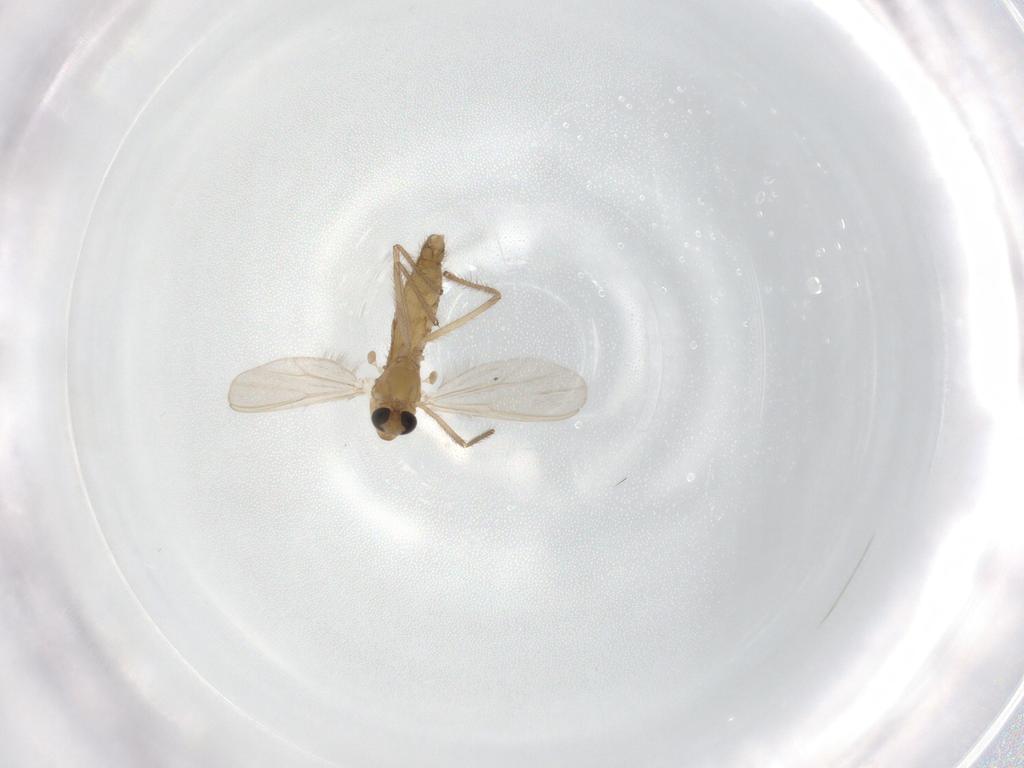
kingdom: Animalia
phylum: Arthropoda
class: Insecta
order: Diptera
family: Chironomidae
